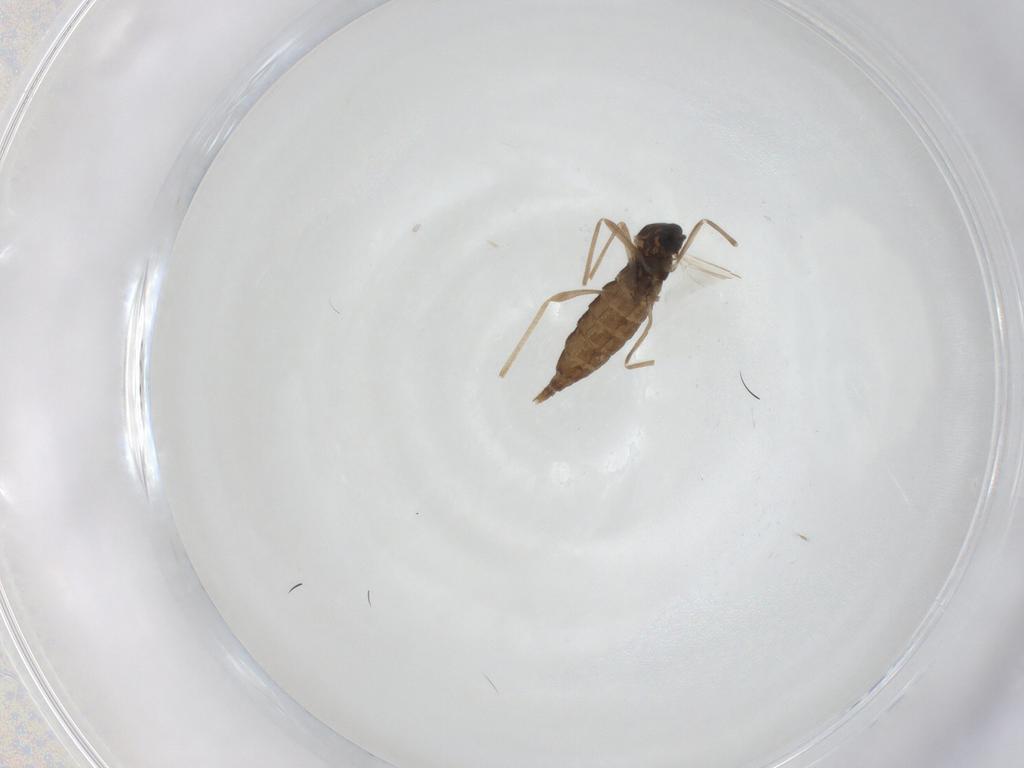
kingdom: Animalia
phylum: Arthropoda
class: Insecta
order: Diptera
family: Cecidomyiidae
